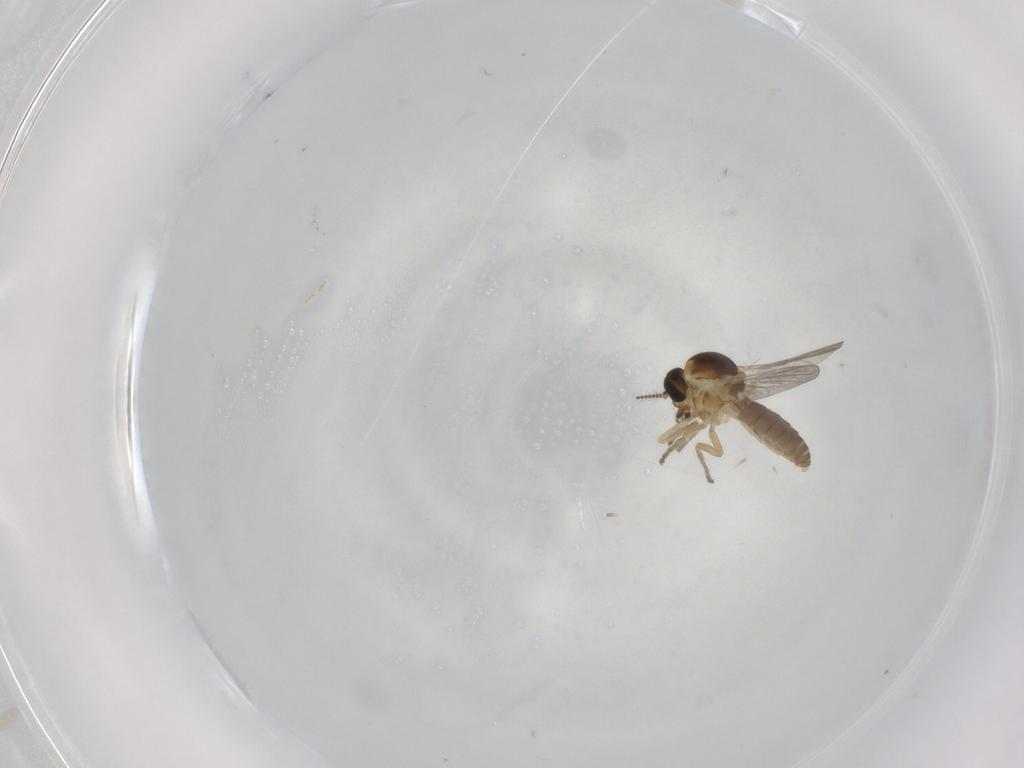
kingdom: Animalia
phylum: Arthropoda
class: Insecta
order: Diptera
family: Ceratopogonidae
